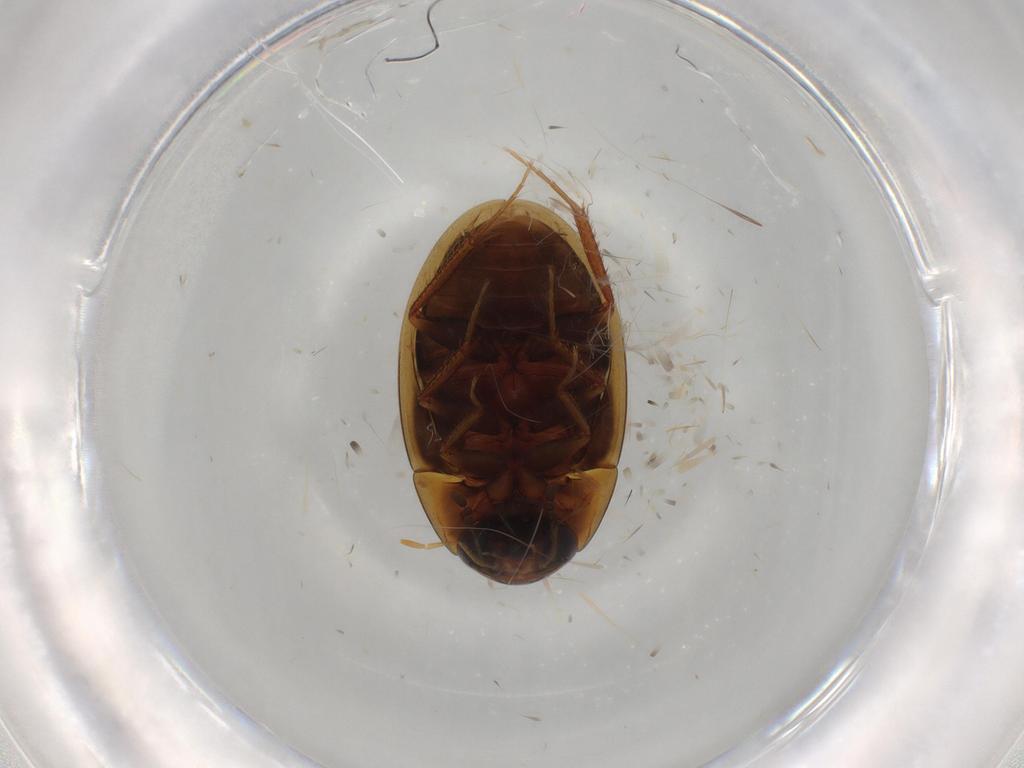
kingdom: Animalia
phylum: Arthropoda
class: Insecta
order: Coleoptera
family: Hydrophilidae
